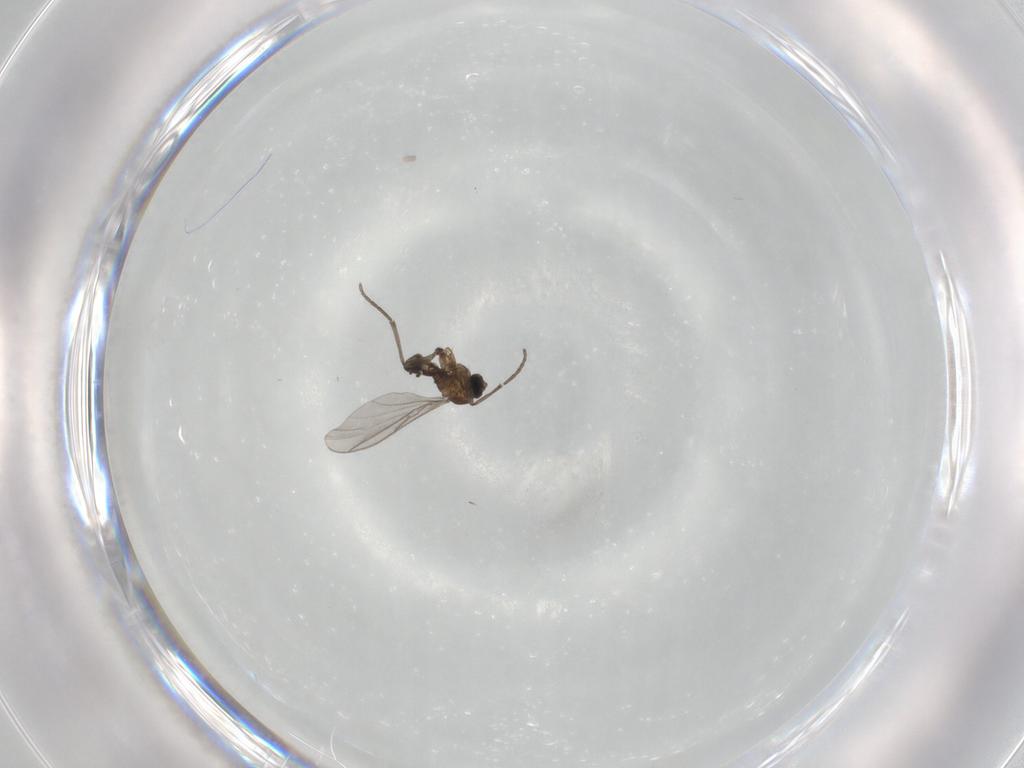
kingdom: Animalia
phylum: Arthropoda
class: Insecta
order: Diptera
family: Sciaridae
